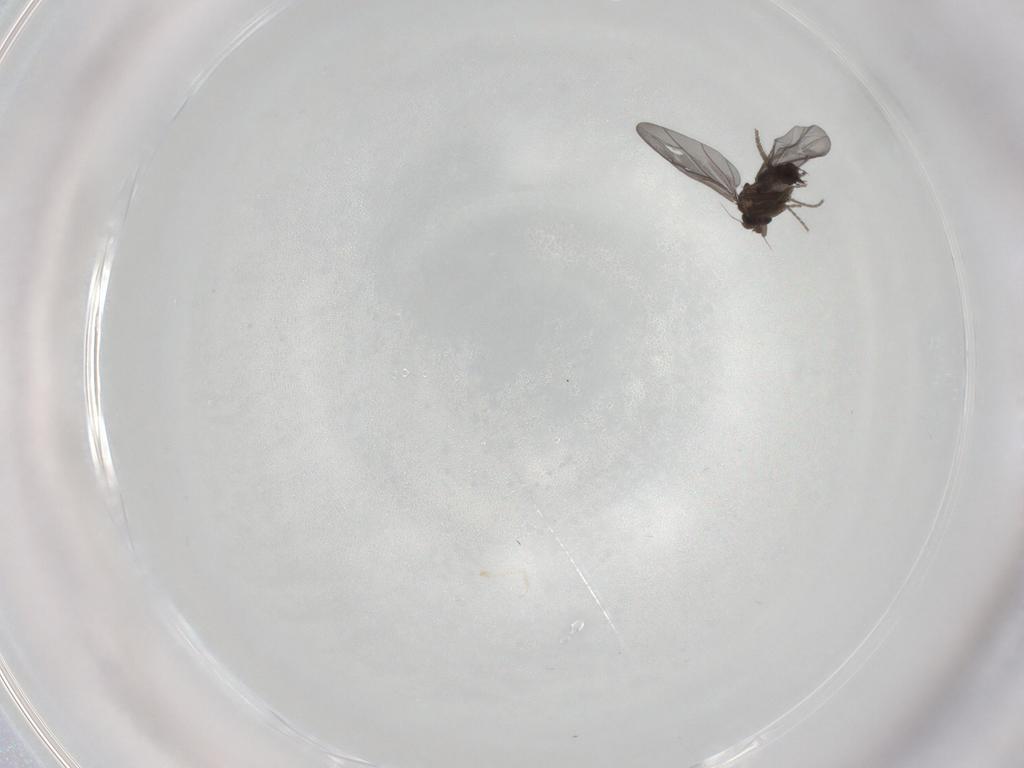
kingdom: Animalia
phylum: Arthropoda
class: Insecta
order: Diptera
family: Phoridae
